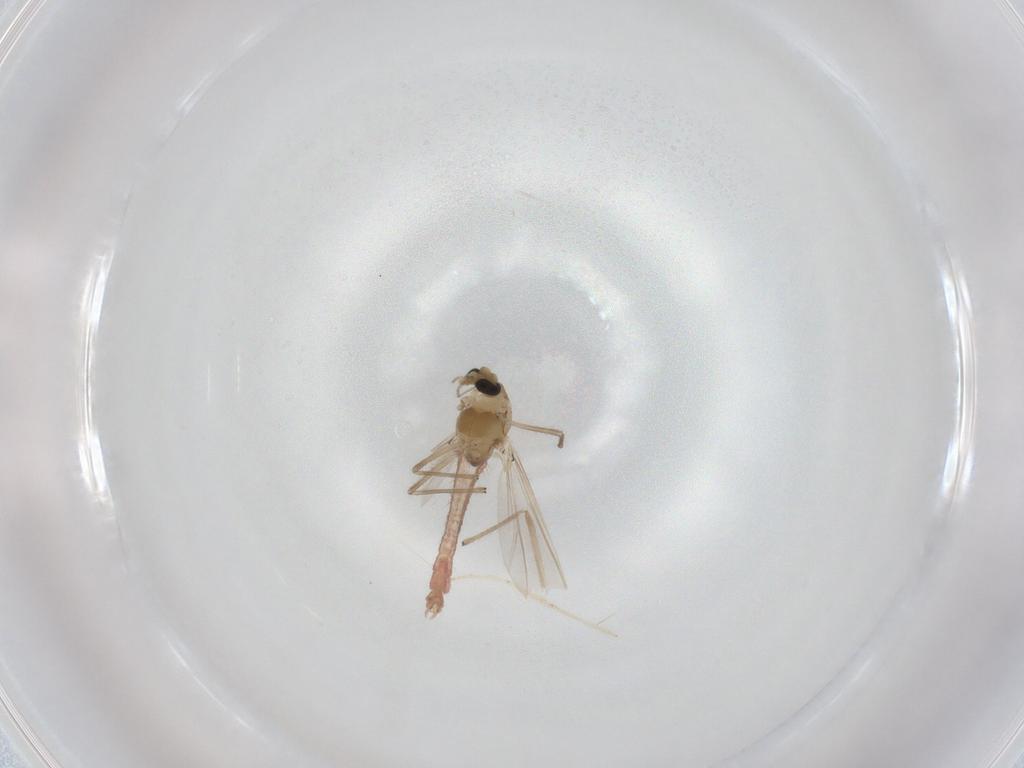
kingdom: Animalia
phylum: Arthropoda
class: Insecta
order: Diptera
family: Chironomidae
